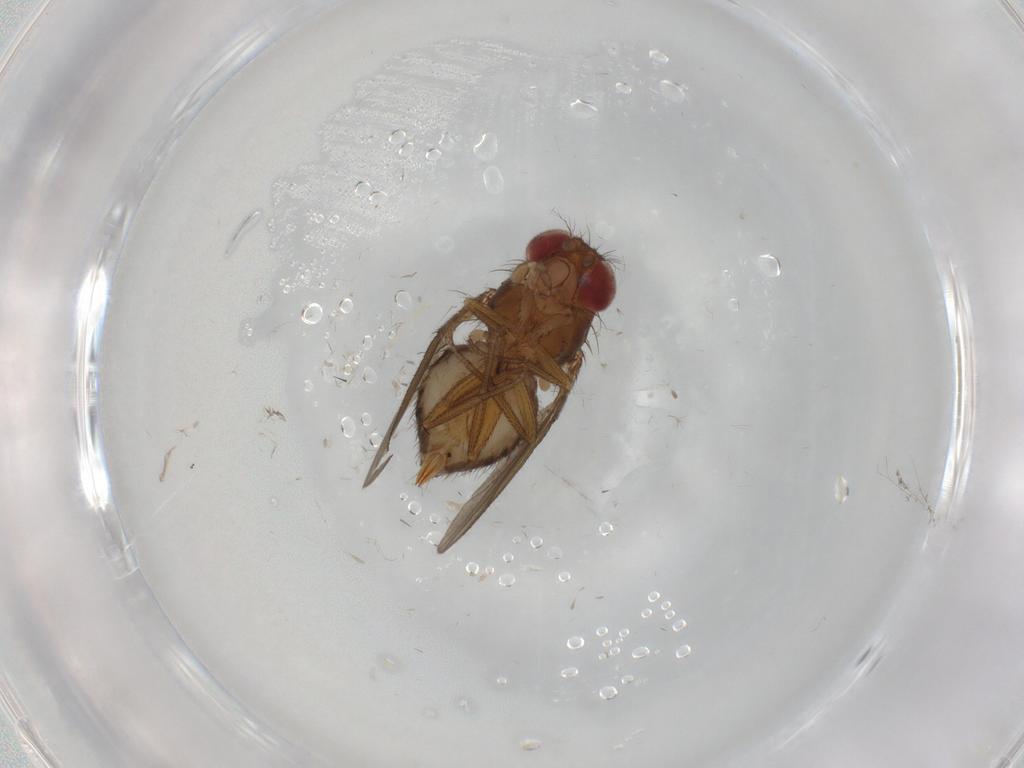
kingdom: Animalia
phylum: Arthropoda
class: Insecta
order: Diptera
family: Drosophilidae
